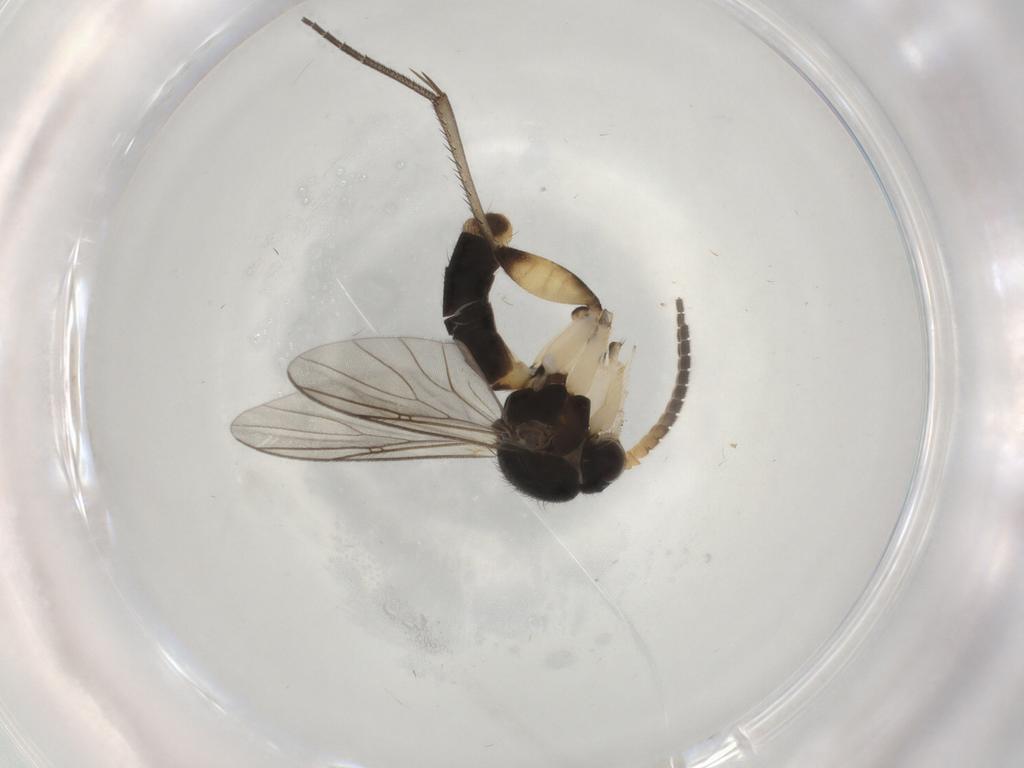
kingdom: Animalia
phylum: Arthropoda
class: Insecta
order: Diptera
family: Mycetophilidae
